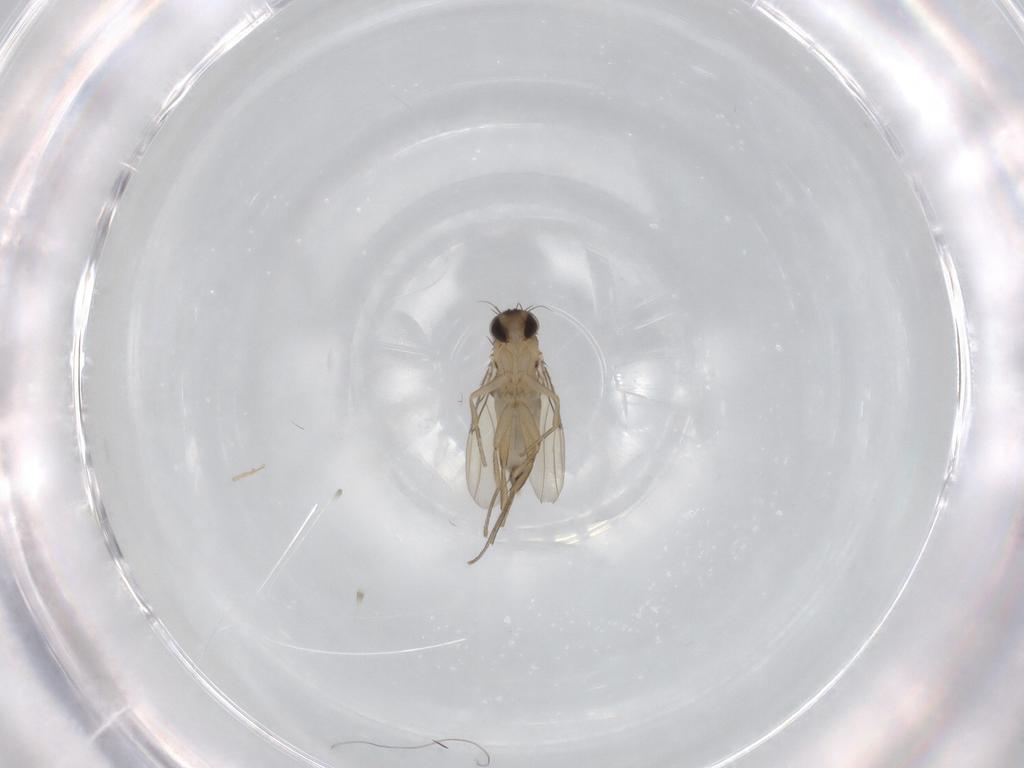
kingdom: Animalia
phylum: Arthropoda
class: Insecta
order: Diptera
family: Phoridae
